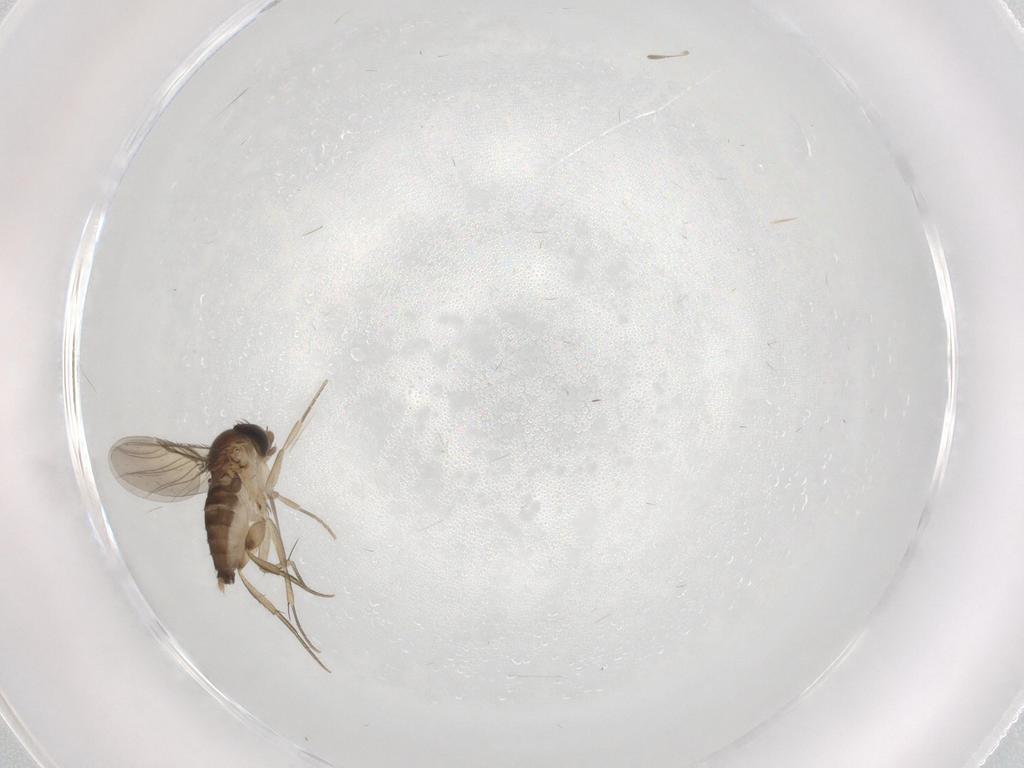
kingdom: Animalia
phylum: Arthropoda
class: Insecta
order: Diptera
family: Phoridae
